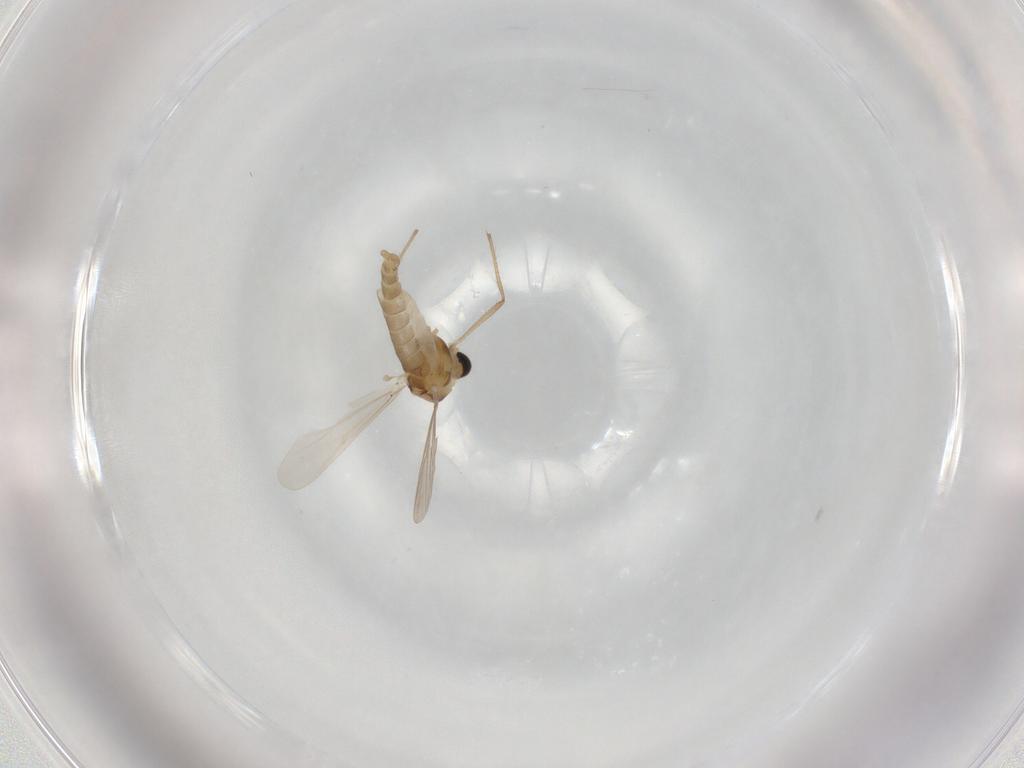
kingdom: Animalia
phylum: Arthropoda
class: Insecta
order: Diptera
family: Chironomidae
